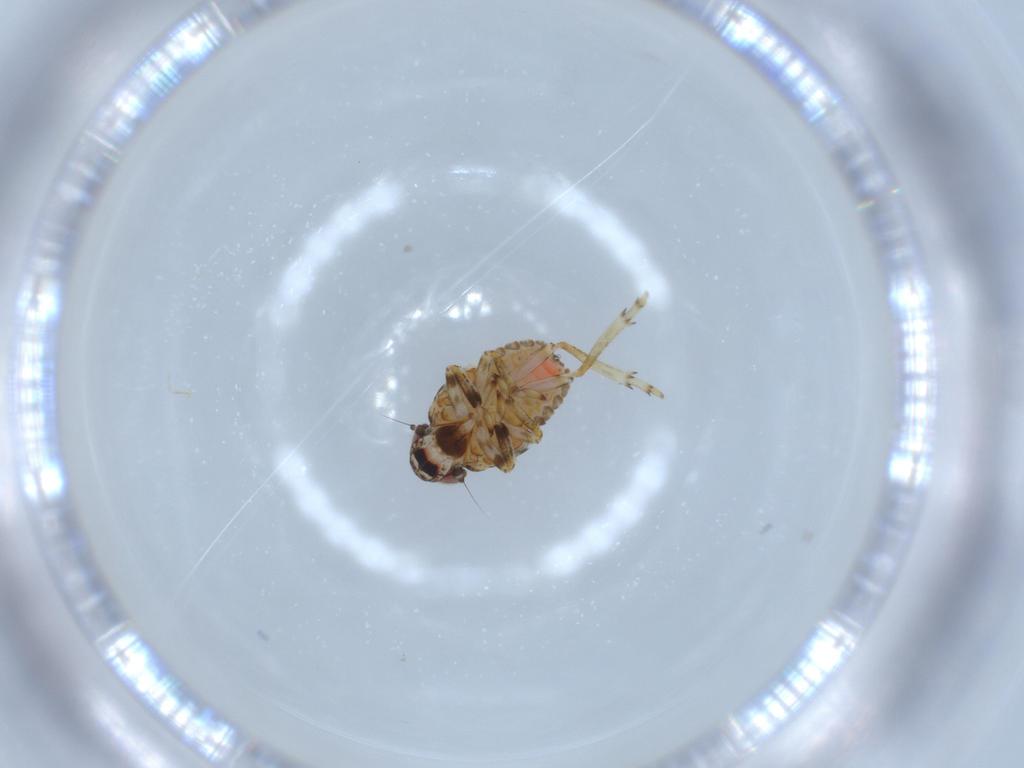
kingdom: Animalia
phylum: Arthropoda
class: Insecta
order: Hemiptera
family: Issidae
